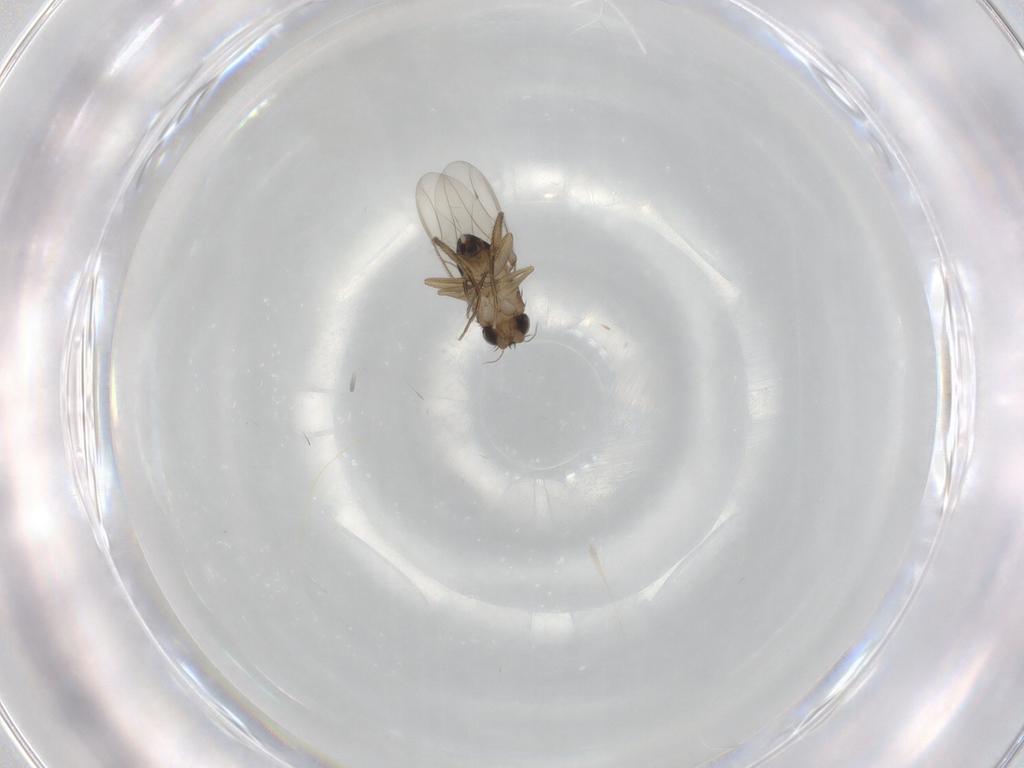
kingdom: Animalia
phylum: Arthropoda
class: Insecta
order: Diptera
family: Phoridae
